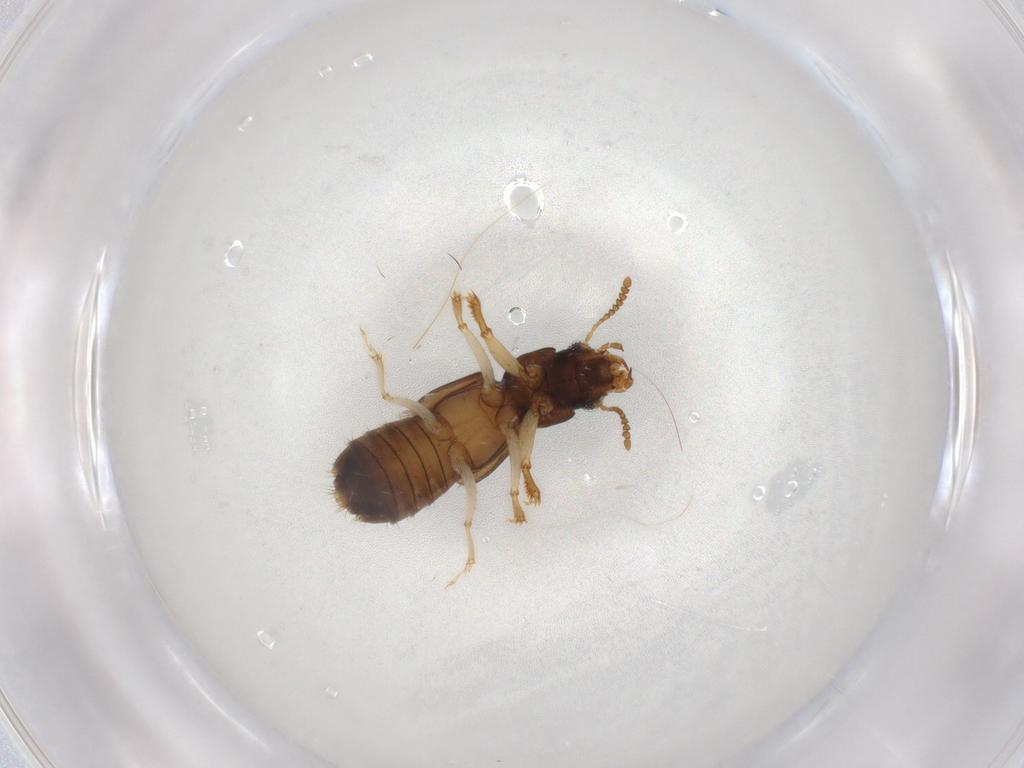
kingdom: Animalia
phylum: Arthropoda
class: Insecta
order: Coleoptera
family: Staphylinidae
